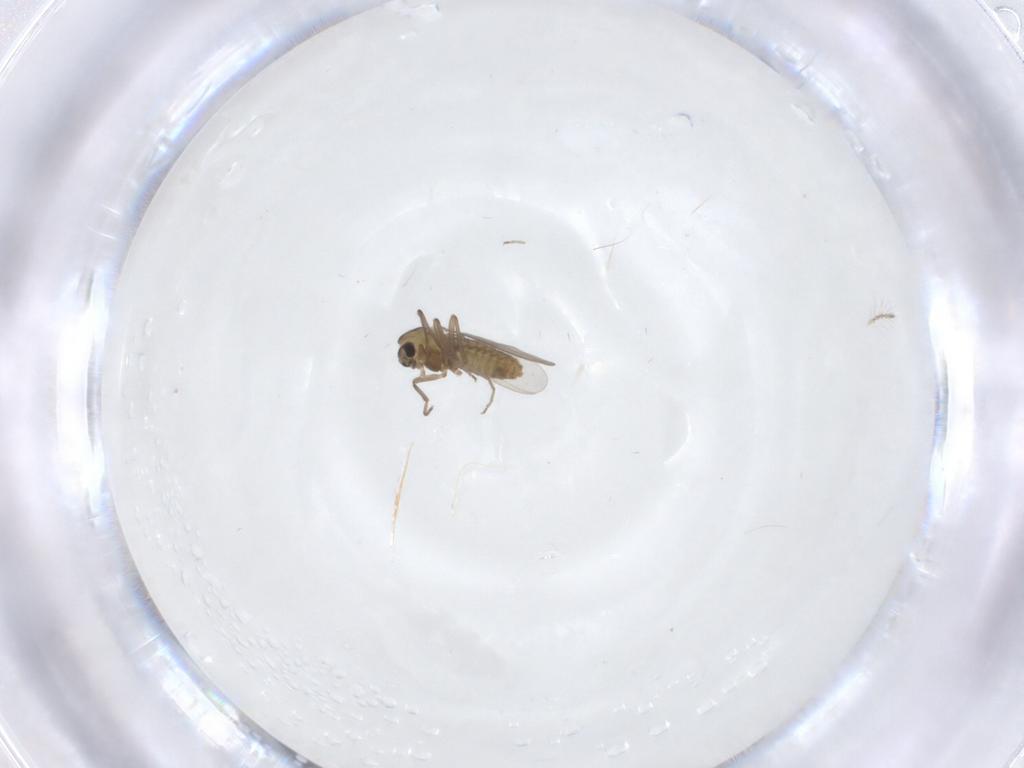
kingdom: Animalia
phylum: Arthropoda
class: Insecta
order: Diptera
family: Chironomidae
